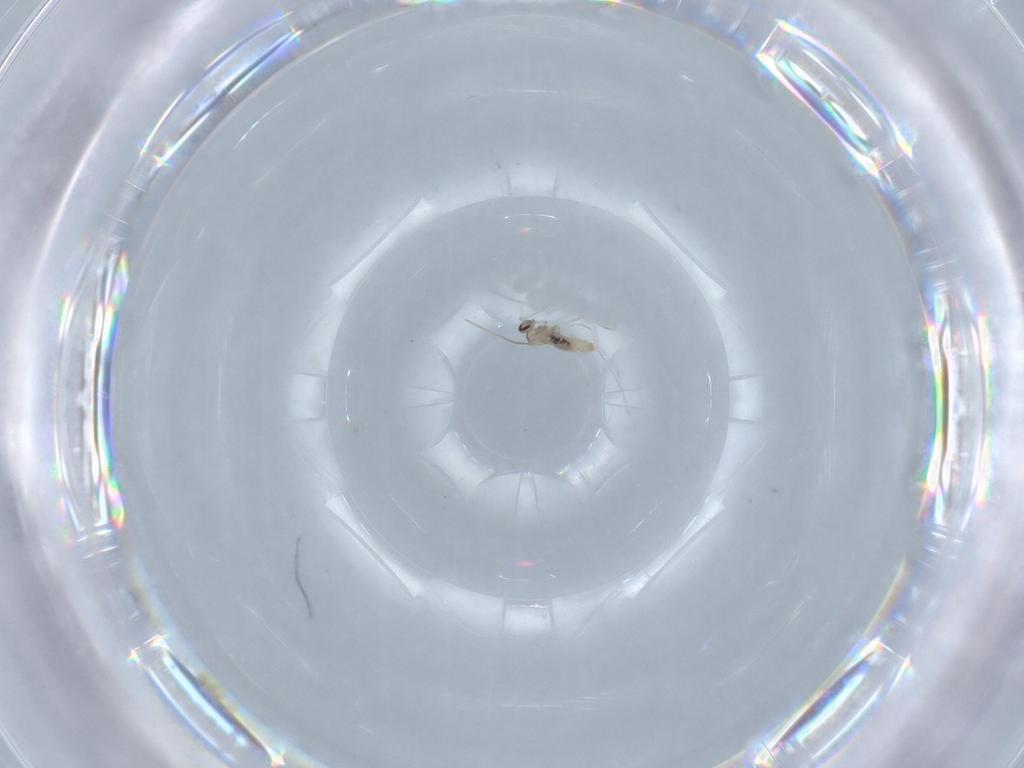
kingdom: Animalia
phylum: Arthropoda
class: Insecta
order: Diptera
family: Cecidomyiidae
